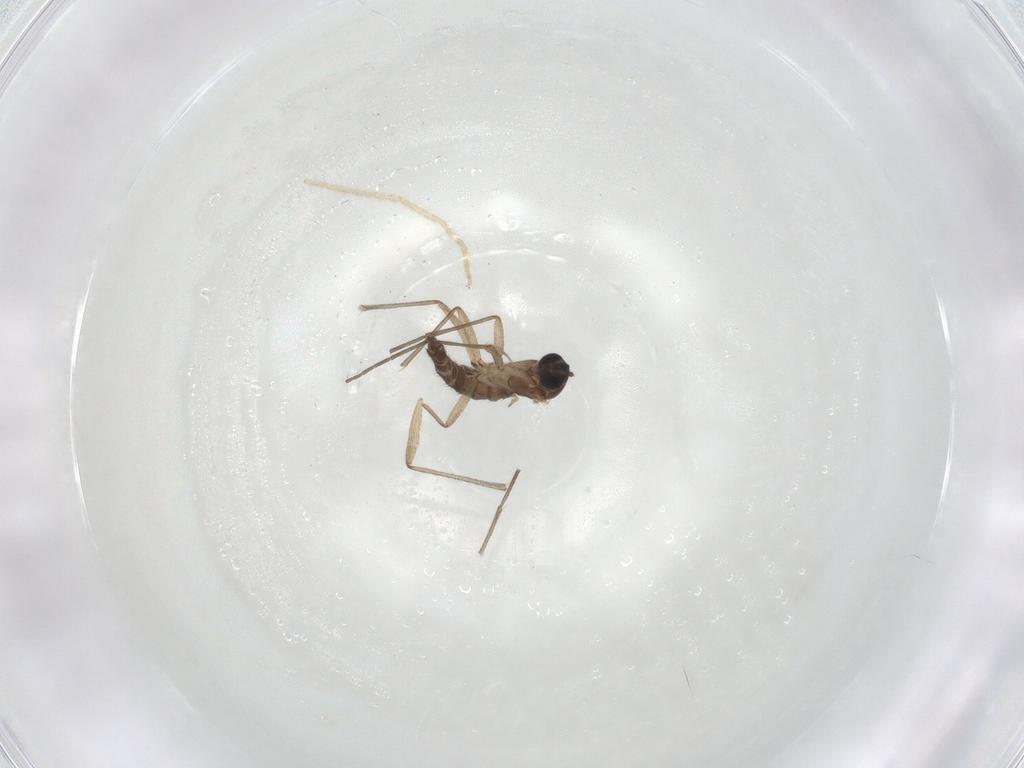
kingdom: Animalia
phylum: Arthropoda
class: Insecta
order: Diptera
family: Sciaridae
